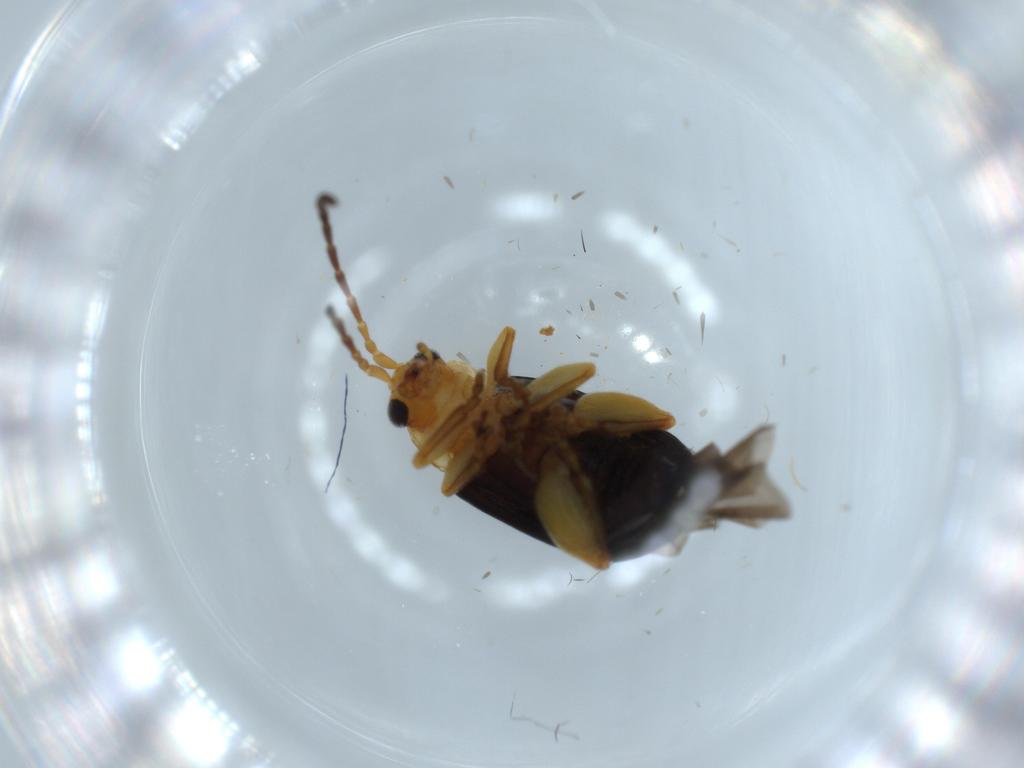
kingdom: Animalia
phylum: Arthropoda
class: Insecta
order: Coleoptera
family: Chrysomelidae
